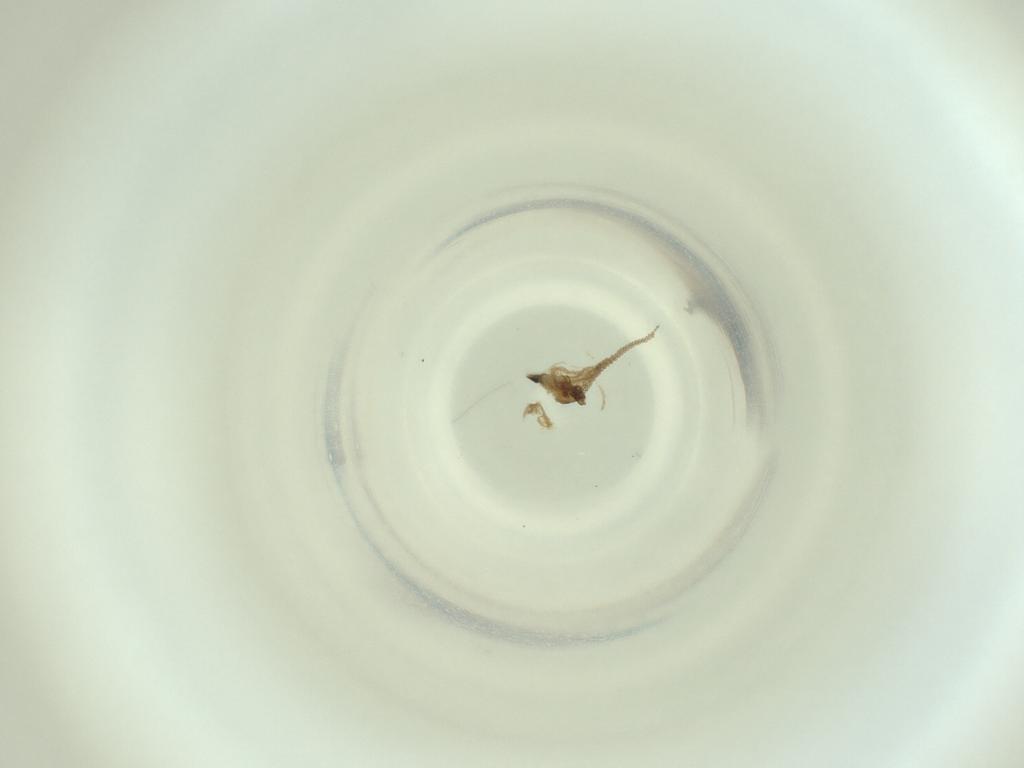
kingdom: Animalia
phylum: Arthropoda
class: Insecta
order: Diptera
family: Cecidomyiidae
